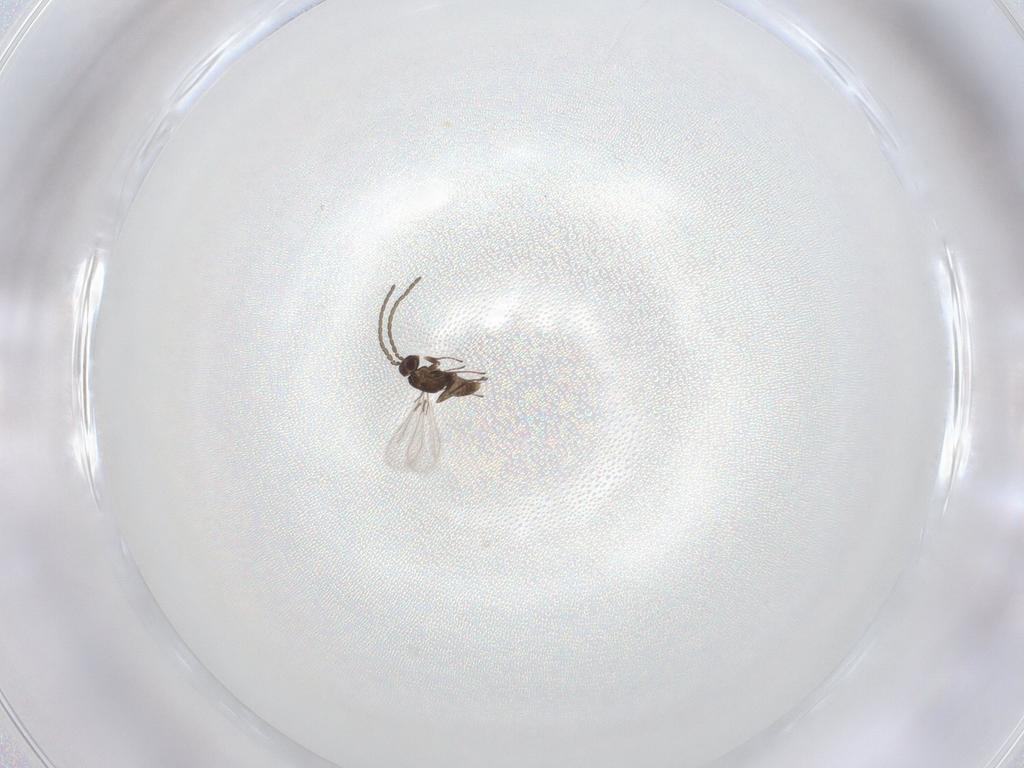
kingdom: Animalia
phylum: Arthropoda
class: Insecta
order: Hymenoptera
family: Mymaridae
